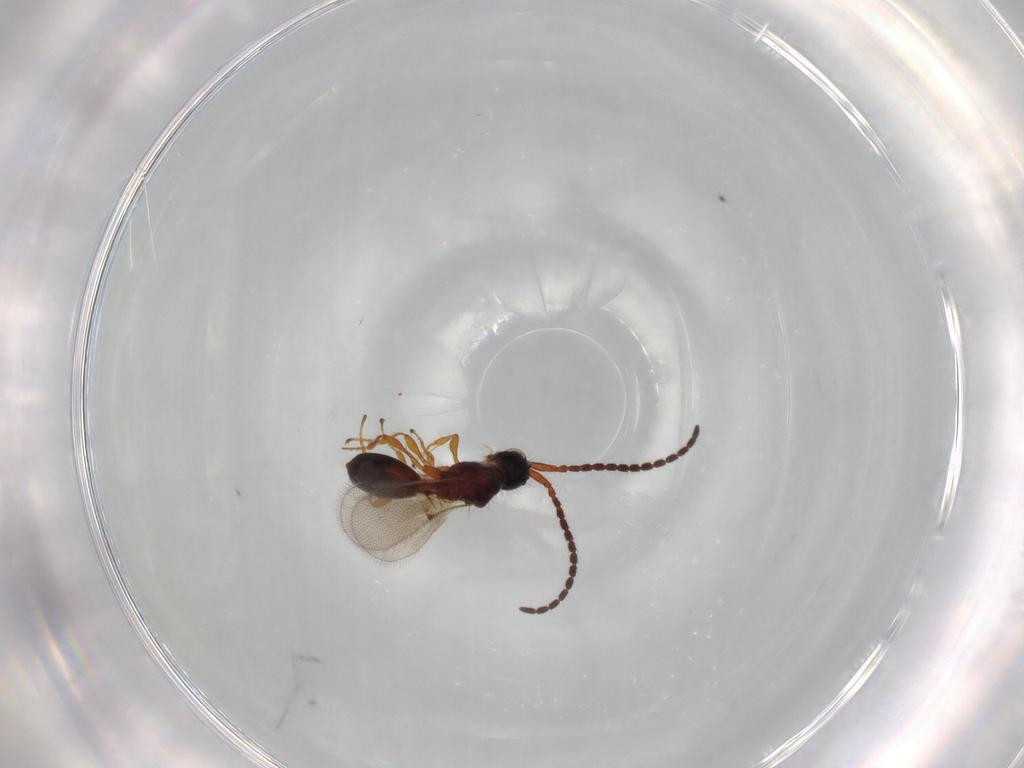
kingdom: Animalia
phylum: Arthropoda
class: Insecta
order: Hymenoptera
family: Diapriidae
